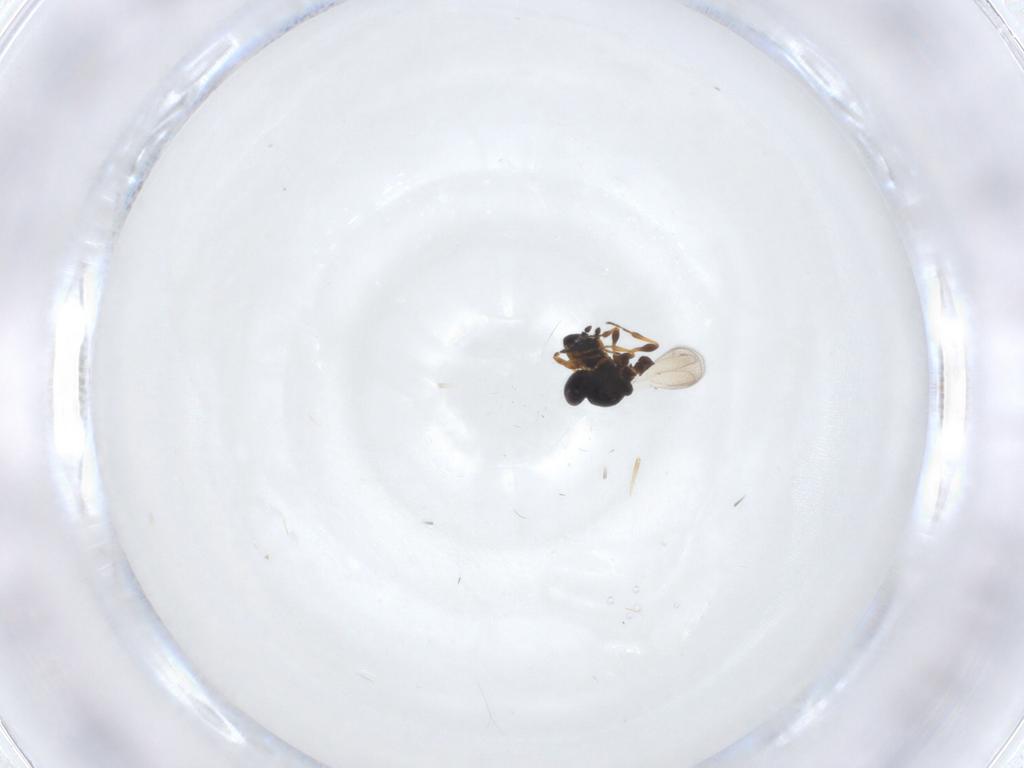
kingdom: Animalia
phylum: Arthropoda
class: Insecta
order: Hymenoptera
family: Platygastridae
